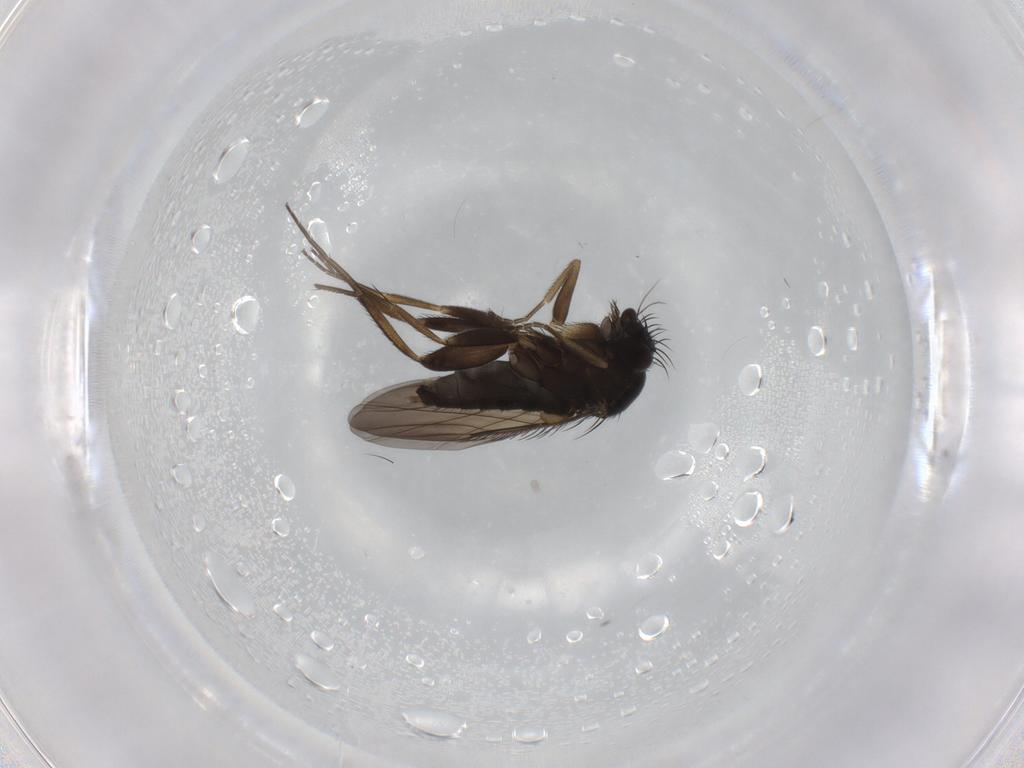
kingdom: Animalia
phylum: Arthropoda
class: Insecta
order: Diptera
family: Phoridae
